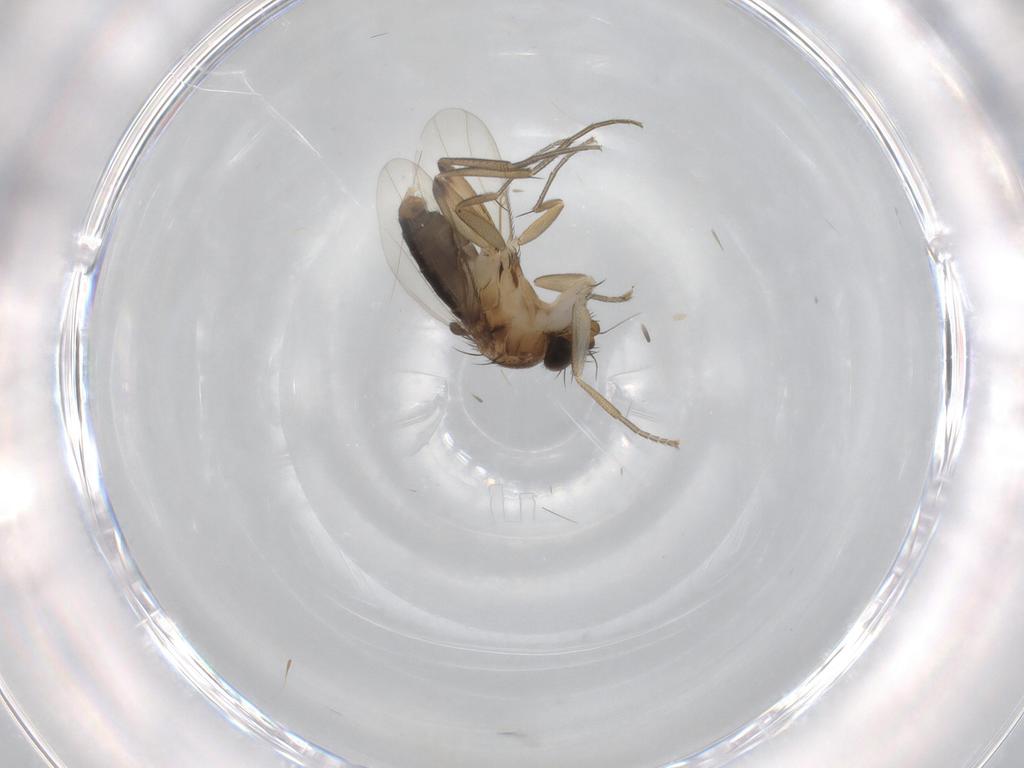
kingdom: Animalia
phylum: Arthropoda
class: Insecta
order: Diptera
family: Phoridae
